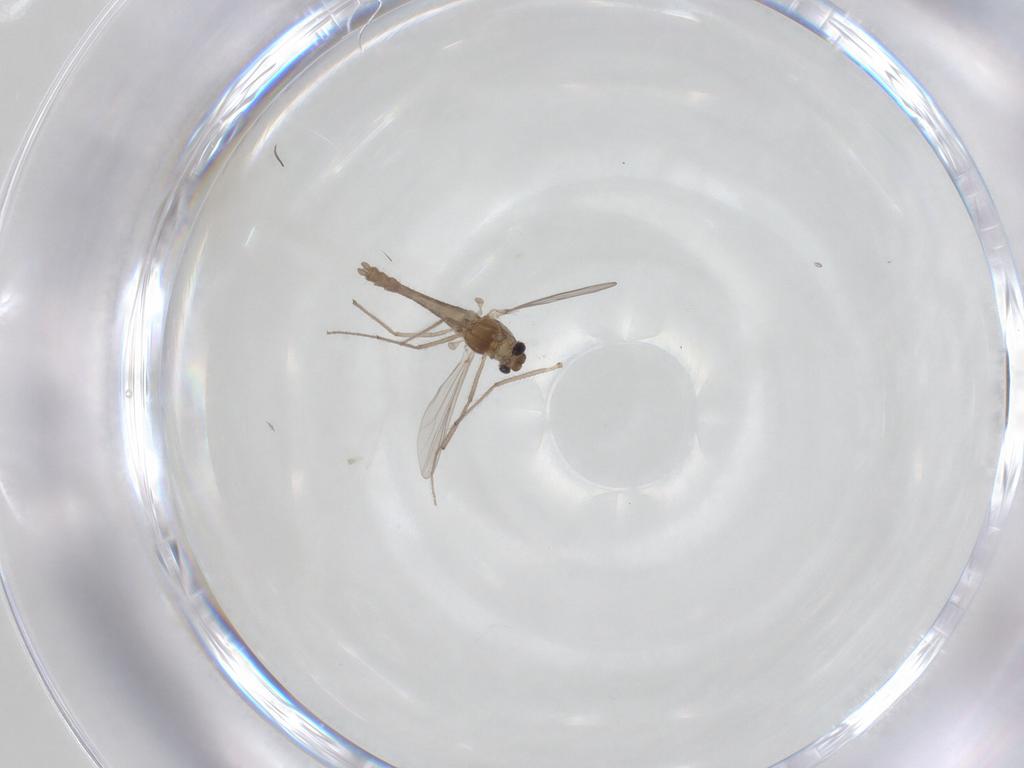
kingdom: Animalia
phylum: Arthropoda
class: Insecta
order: Diptera
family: Chironomidae
